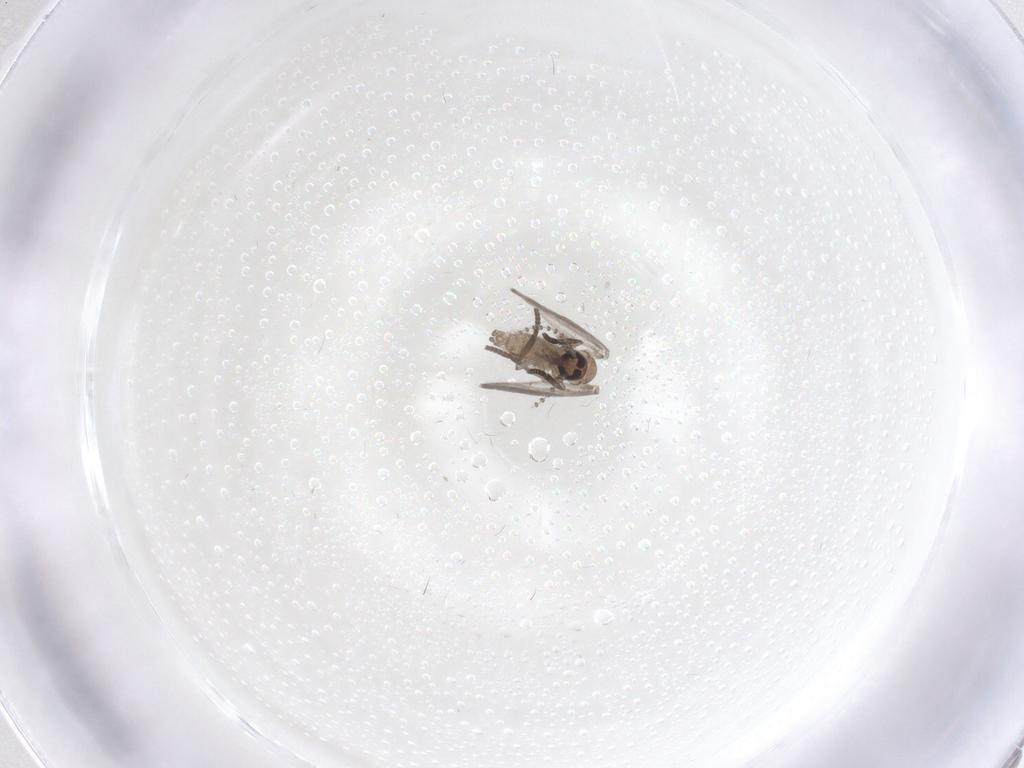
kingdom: Animalia
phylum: Arthropoda
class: Insecta
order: Diptera
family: Psychodidae
